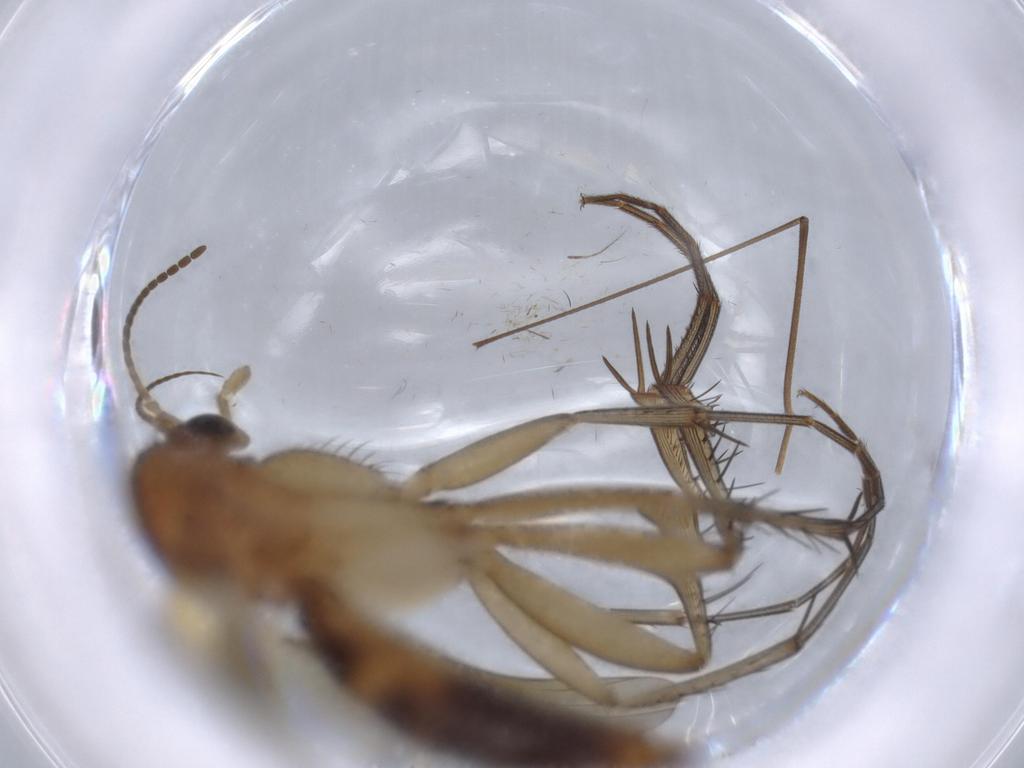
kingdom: Animalia
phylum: Arthropoda
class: Insecta
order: Diptera
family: Mycetophilidae
